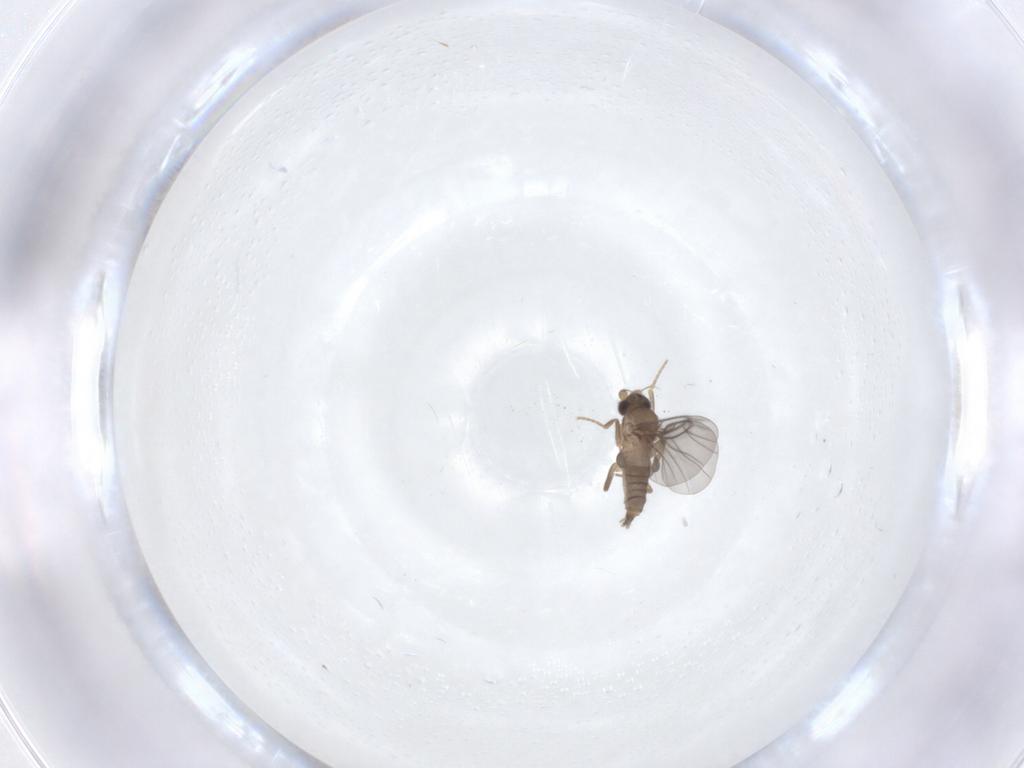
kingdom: Animalia
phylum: Arthropoda
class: Insecta
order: Diptera
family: Ceratopogonidae
